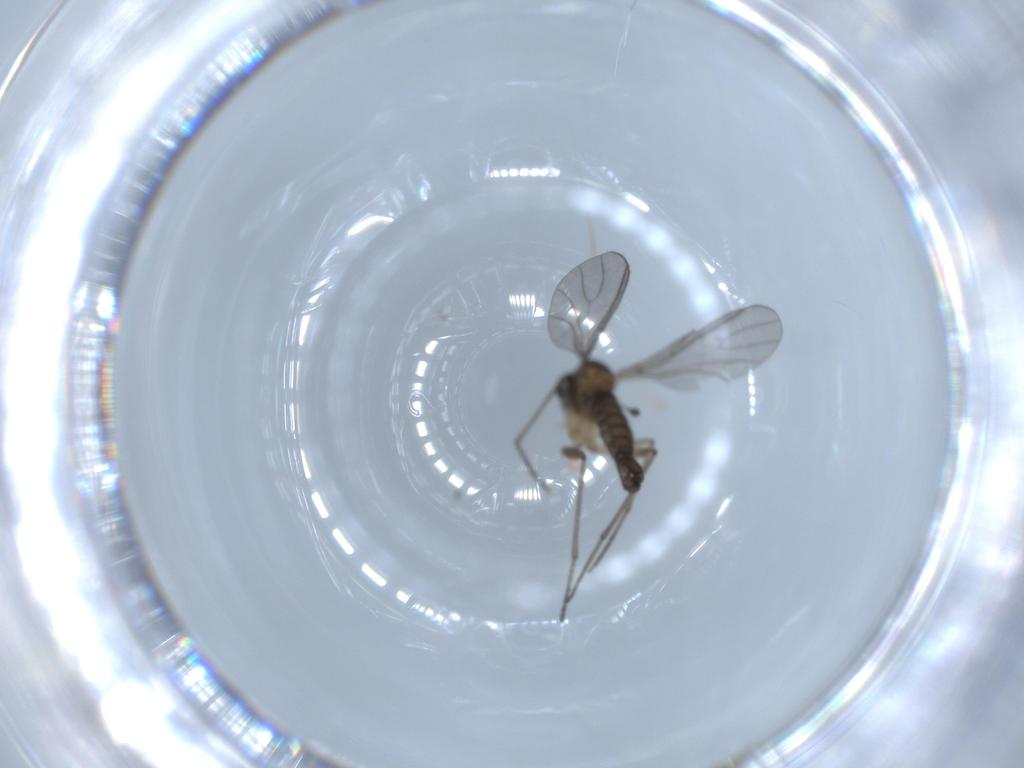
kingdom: Animalia
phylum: Arthropoda
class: Insecta
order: Diptera
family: Sciaridae
